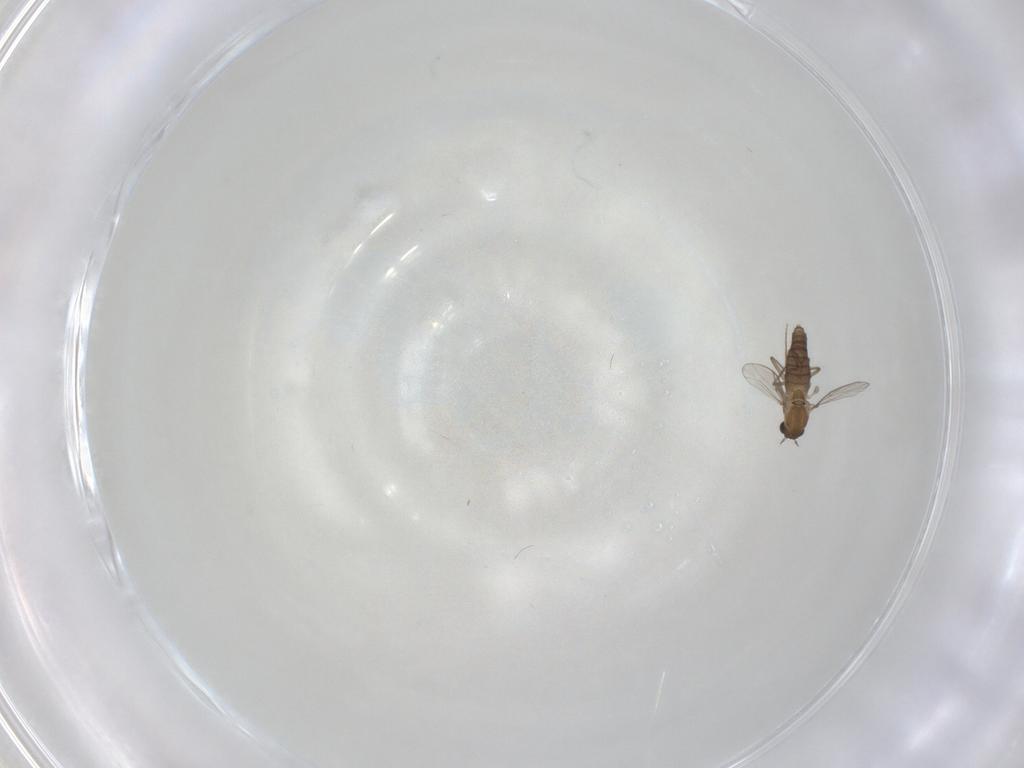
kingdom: Animalia
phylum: Arthropoda
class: Insecta
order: Diptera
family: Chironomidae
